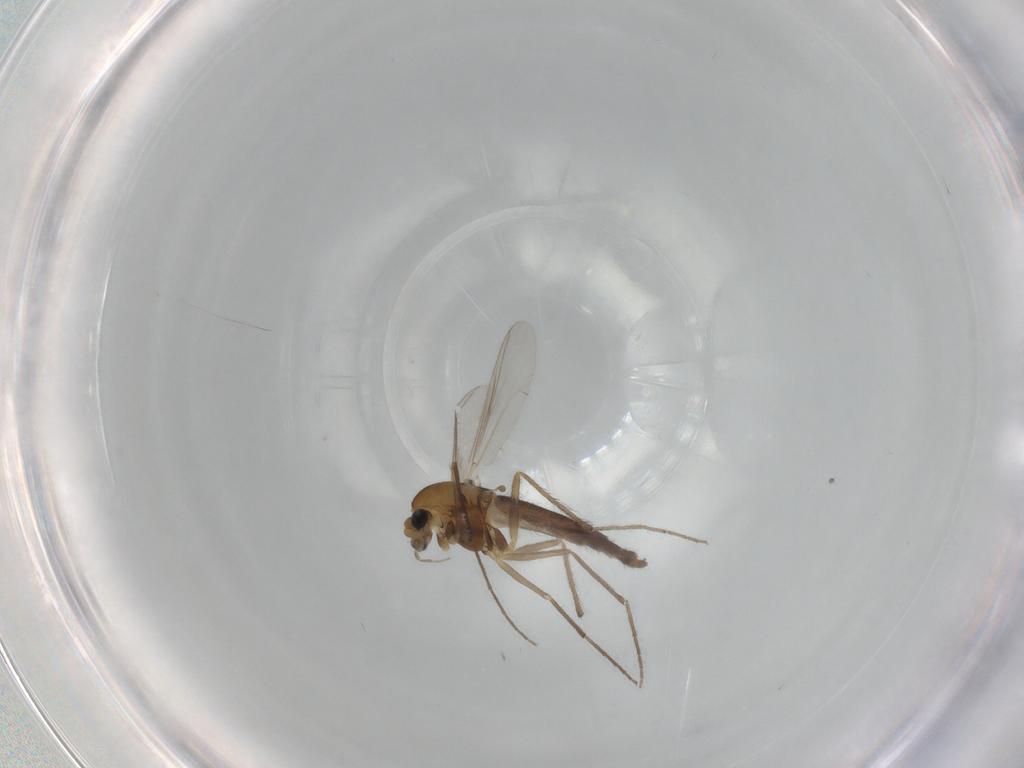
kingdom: Animalia
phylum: Arthropoda
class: Insecta
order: Diptera
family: Chironomidae
